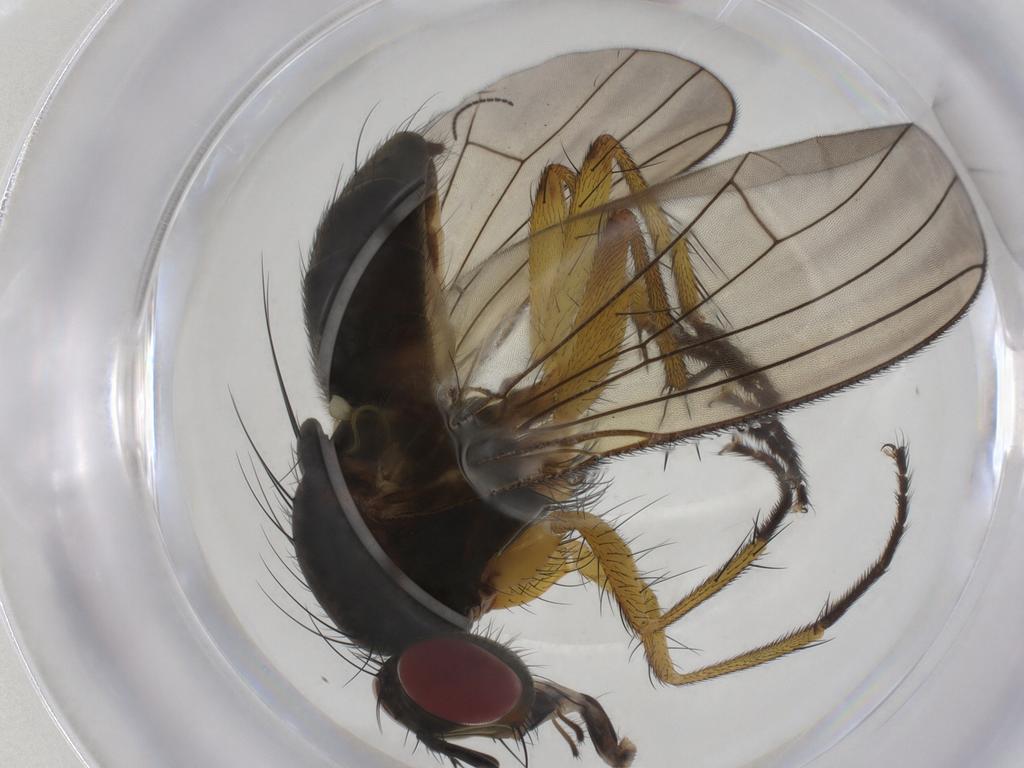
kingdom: Animalia
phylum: Arthropoda
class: Insecta
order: Diptera
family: Muscidae
